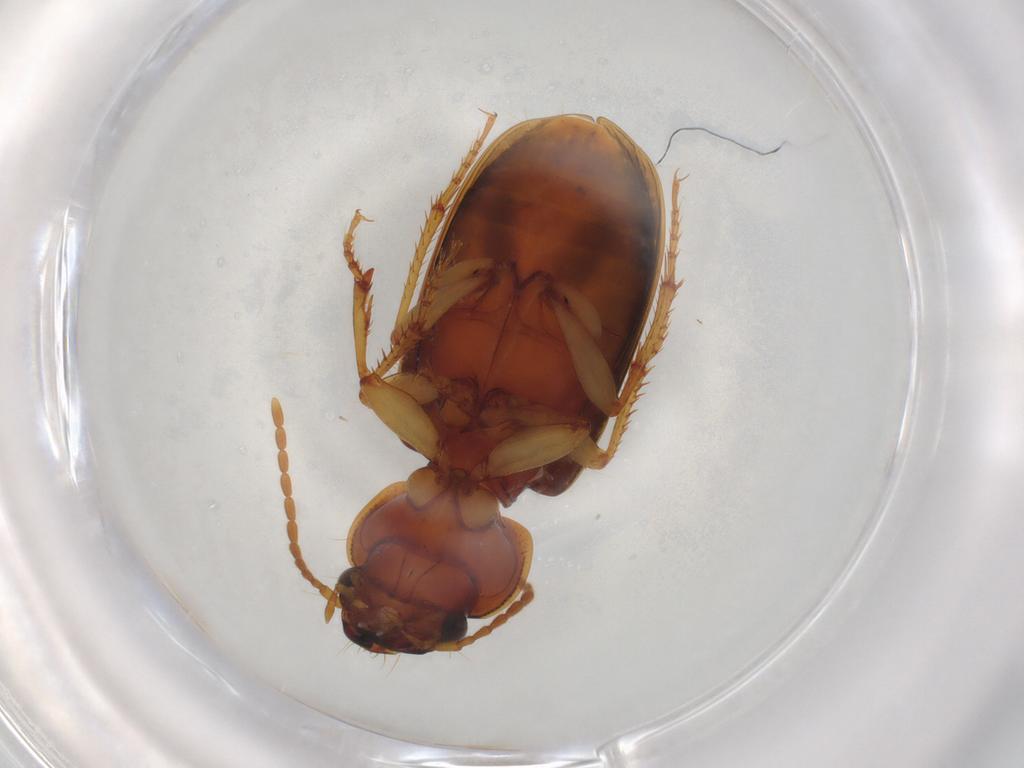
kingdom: Animalia
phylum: Arthropoda
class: Insecta
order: Coleoptera
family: Carabidae
